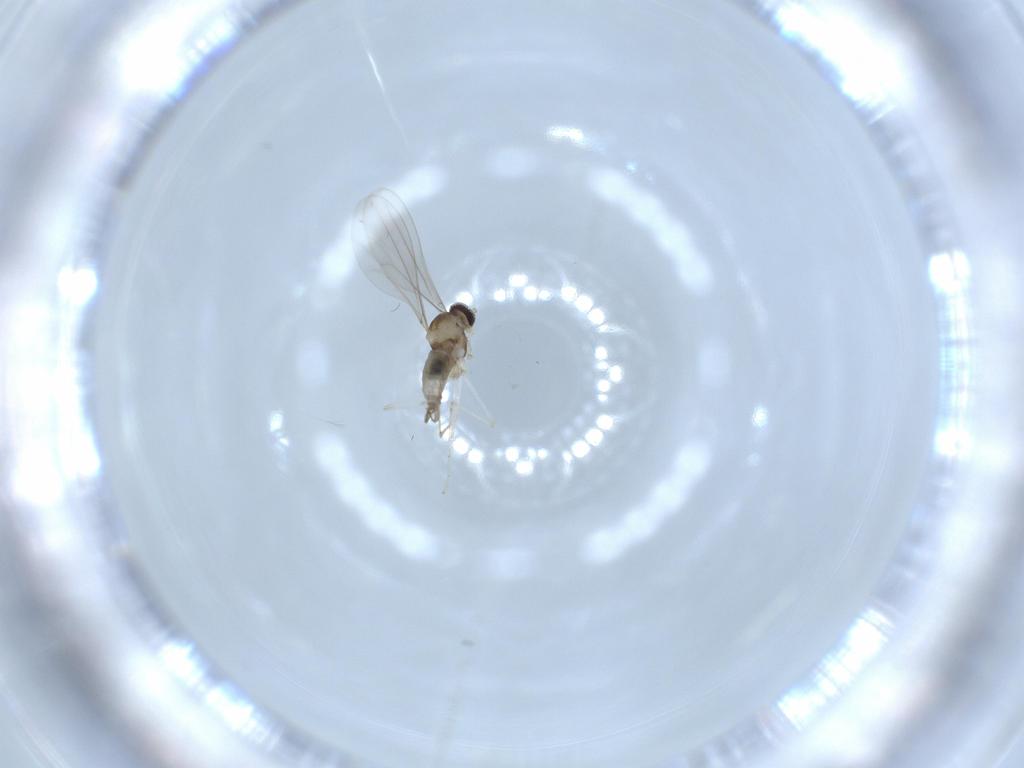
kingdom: Animalia
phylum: Arthropoda
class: Insecta
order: Diptera
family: Cecidomyiidae
